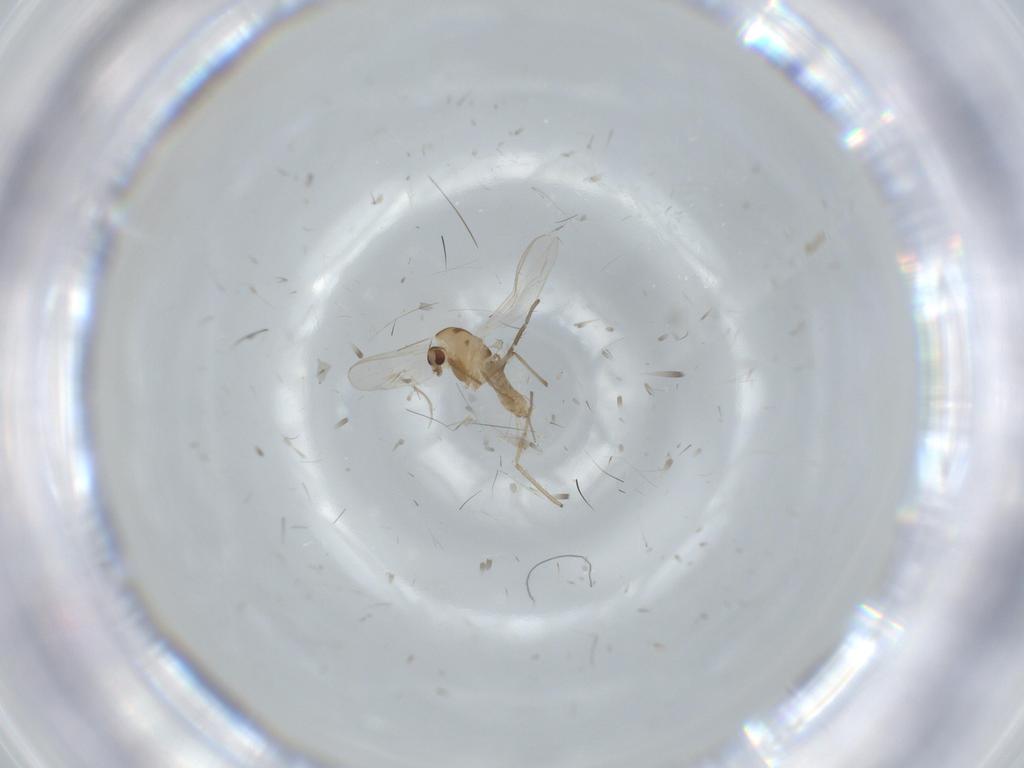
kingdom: Animalia
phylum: Arthropoda
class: Insecta
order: Diptera
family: Chironomidae
